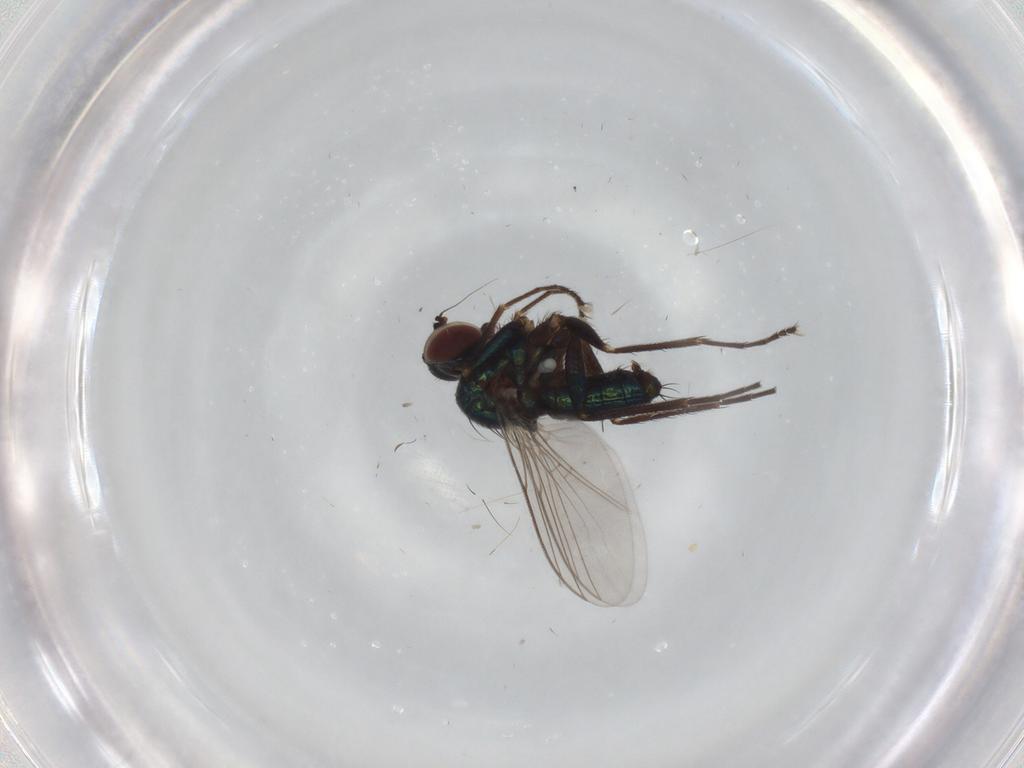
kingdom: Animalia
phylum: Arthropoda
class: Insecta
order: Diptera
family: Dolichopodidae
